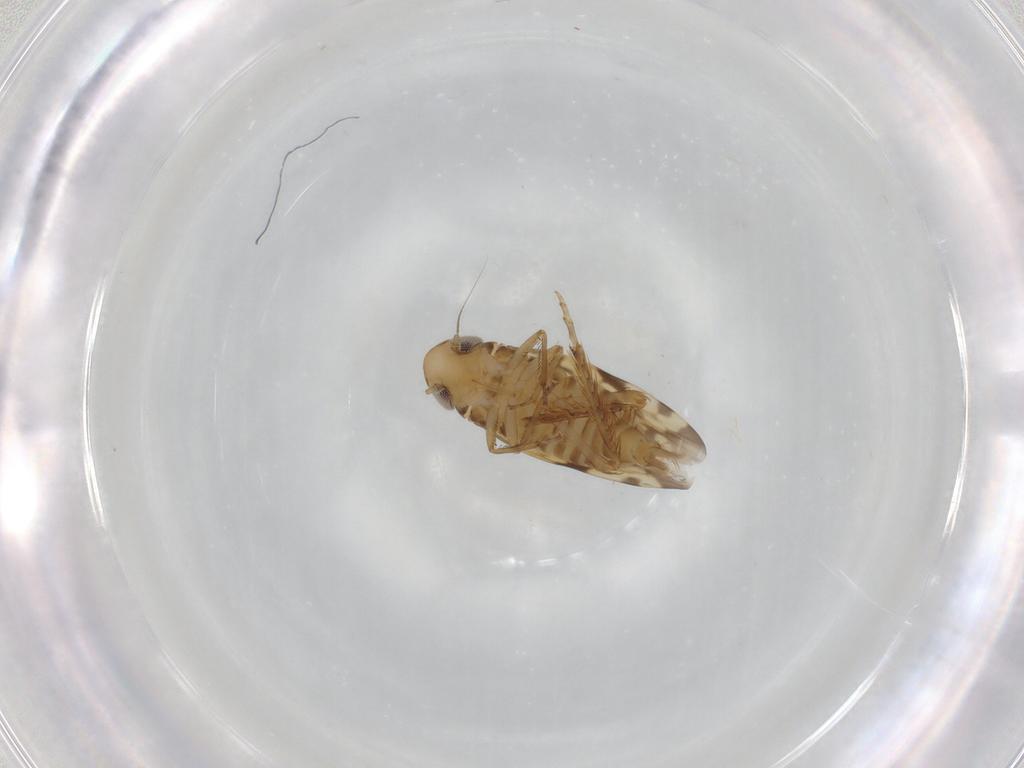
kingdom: Animalia
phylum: Arthropoda
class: Insecta
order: Hemiptera
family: Cicadellidae
